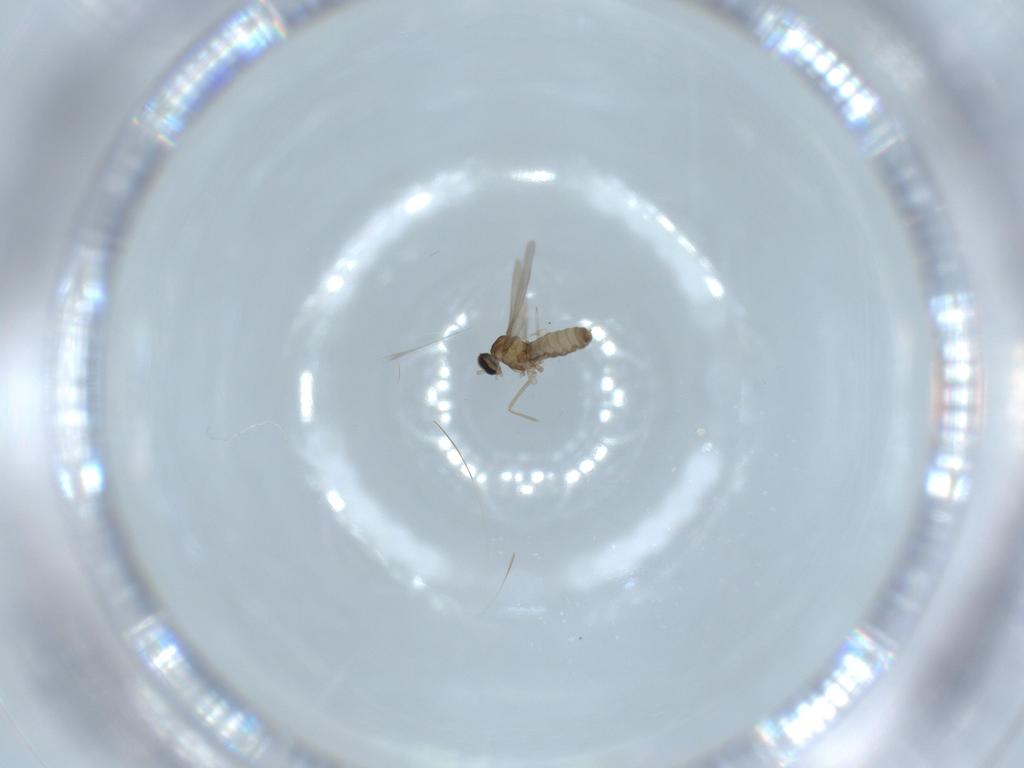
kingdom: Animalia
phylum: Arthropoda
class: Insecta
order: Diptera
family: Cecidomyiidae
